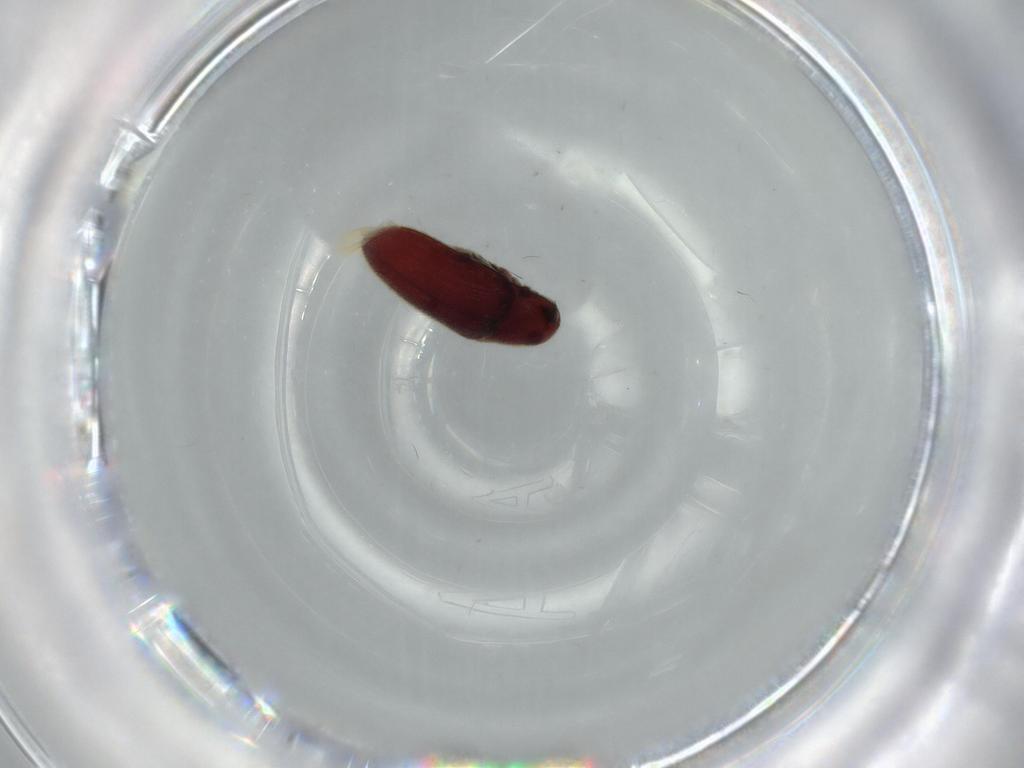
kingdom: Animalia
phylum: Arthropoda
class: Insecta
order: Coleoptera
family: Throscidae
